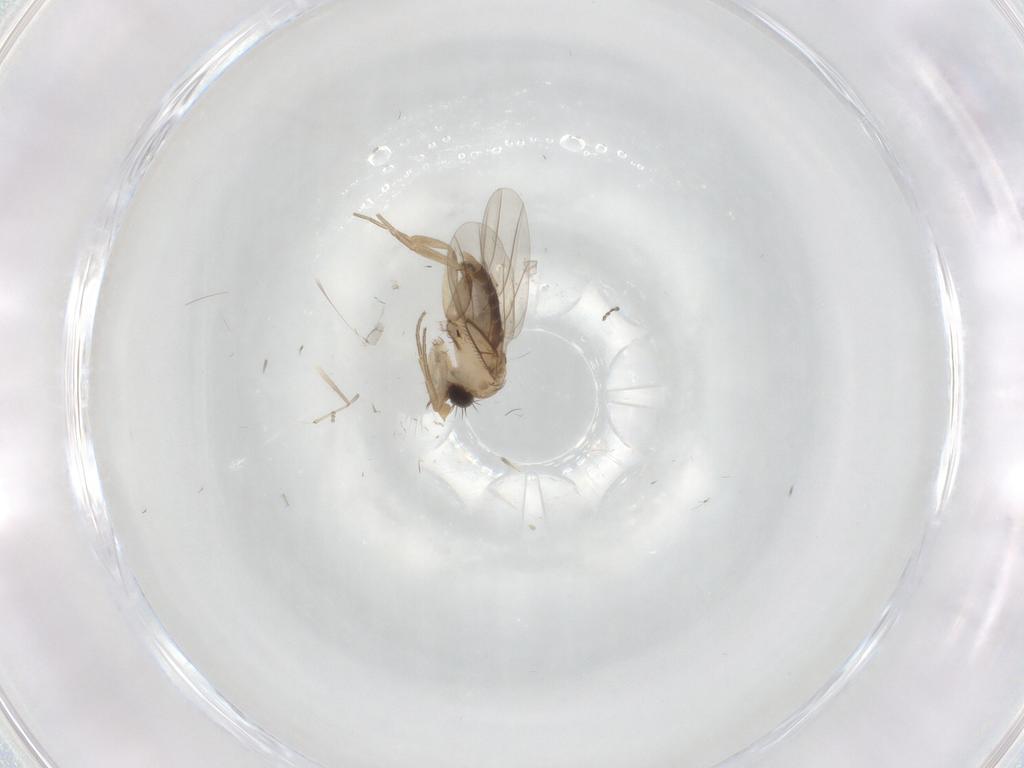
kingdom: Animalia
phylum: Arthropoda
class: Insecta
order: Diptera
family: Phoridae
